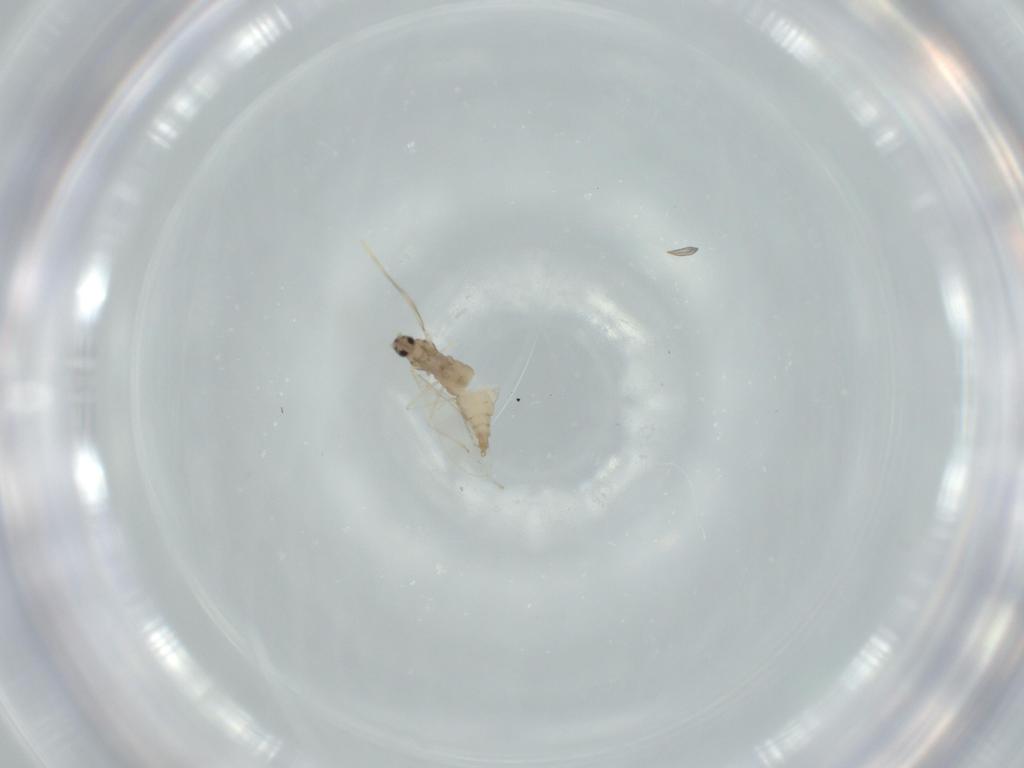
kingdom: Animalia
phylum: Arthropoda
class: Insecta
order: Diptera
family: Cecidomyiidae
